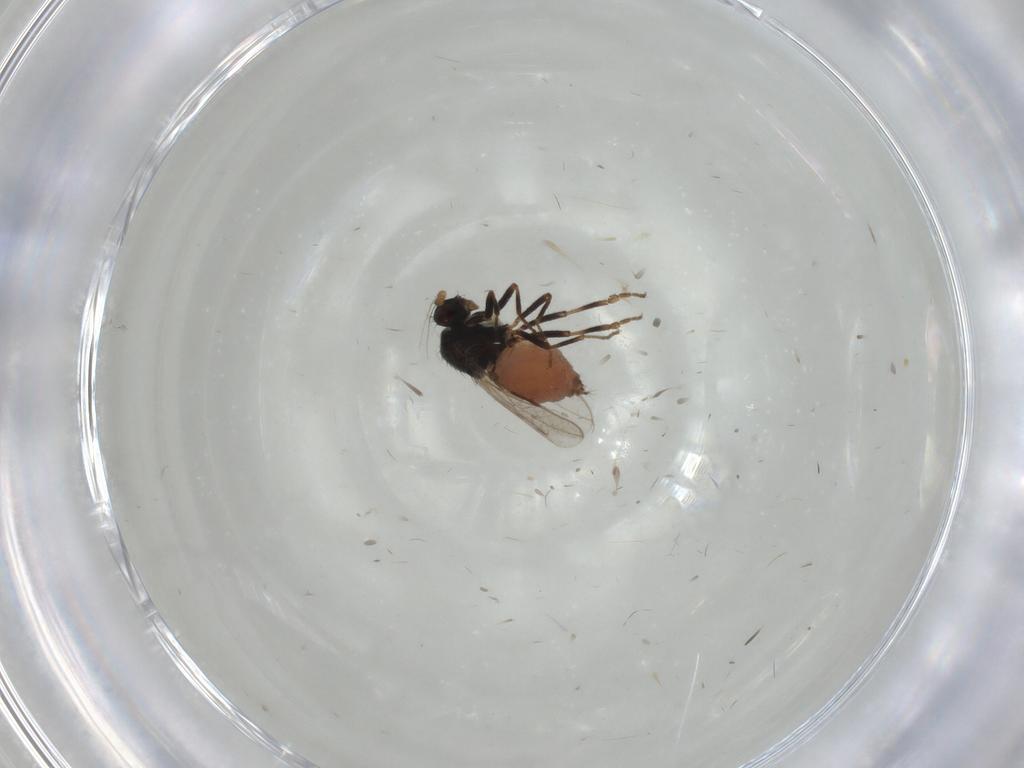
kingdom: Animalia
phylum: Arthropoda
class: Insecta
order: Diptera
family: Sphaeroceridae
